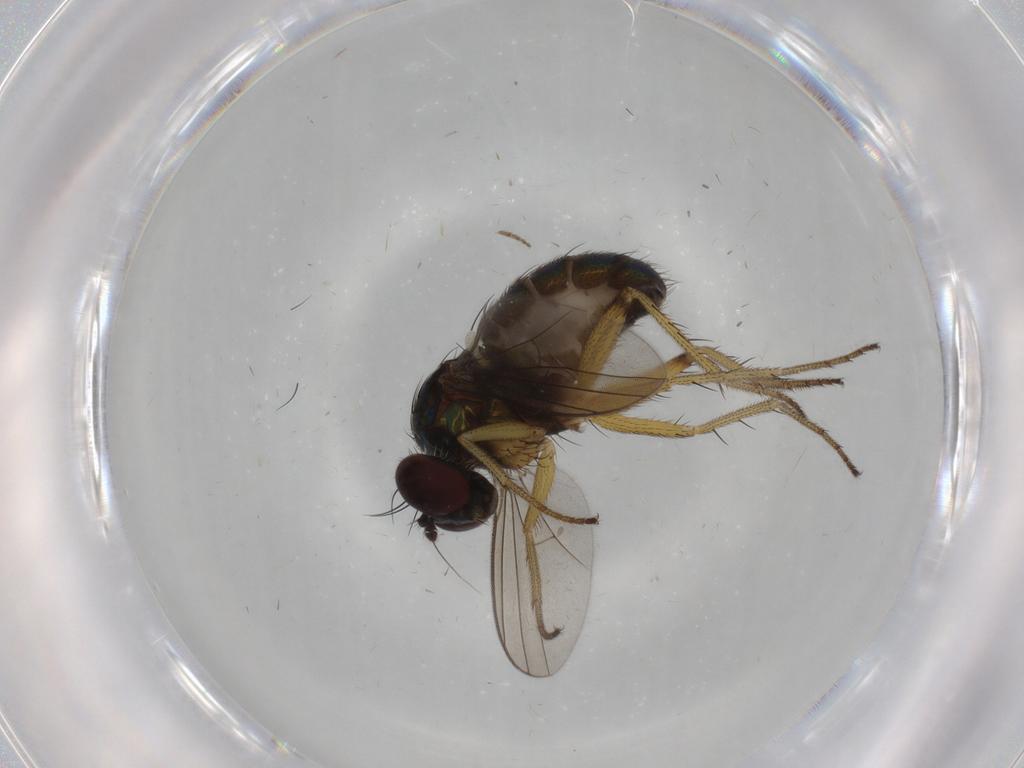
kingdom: Animalia
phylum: Arthropoda
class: Insecta
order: Diptera
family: Dolichopodidae
